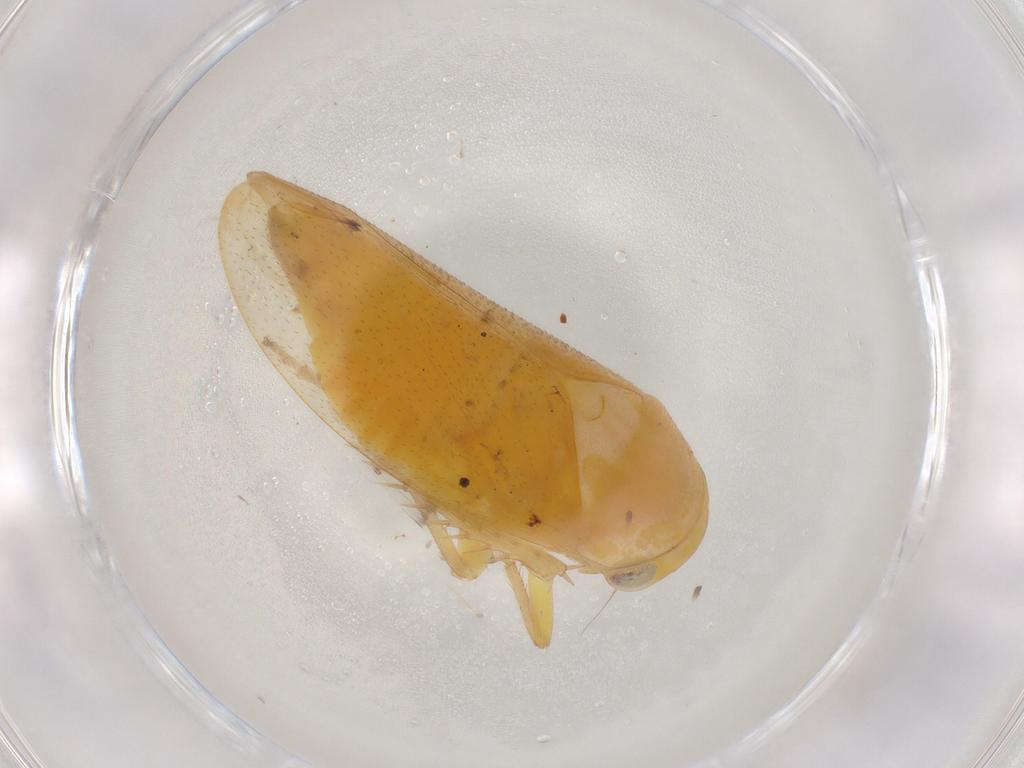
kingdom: Animalia
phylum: Arthropoda
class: Insecta
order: Hemiptera
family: Cicadellidae
